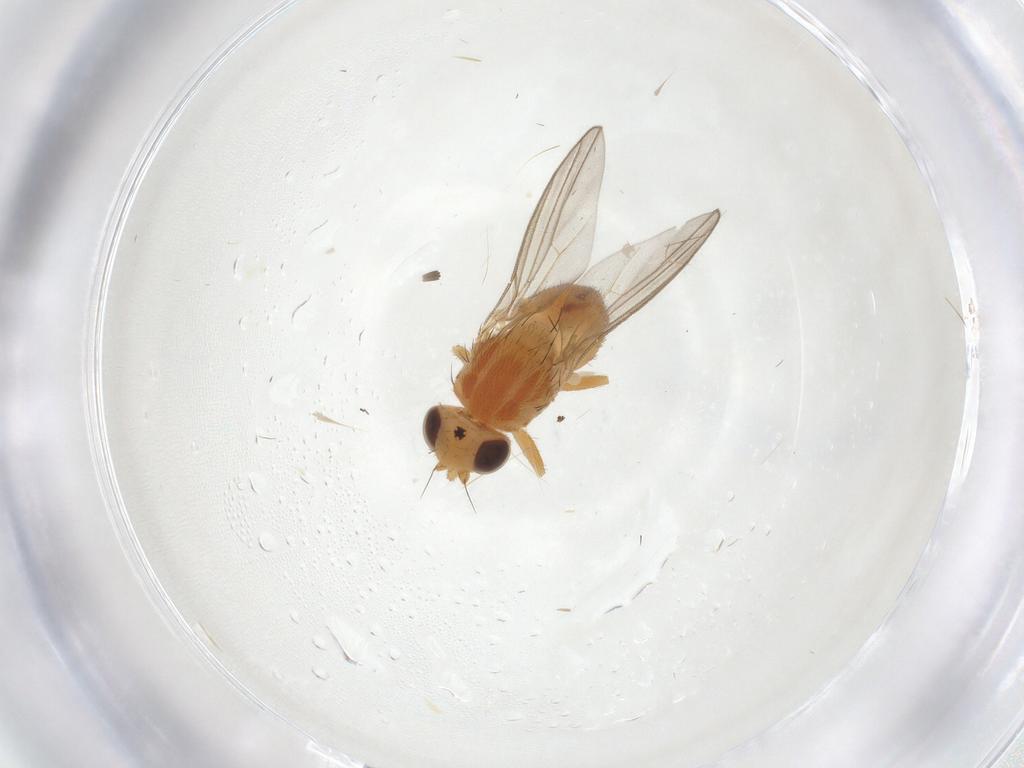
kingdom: Animalia
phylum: Arthropoda
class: Insecta
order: Diptera
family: Chloropidae
